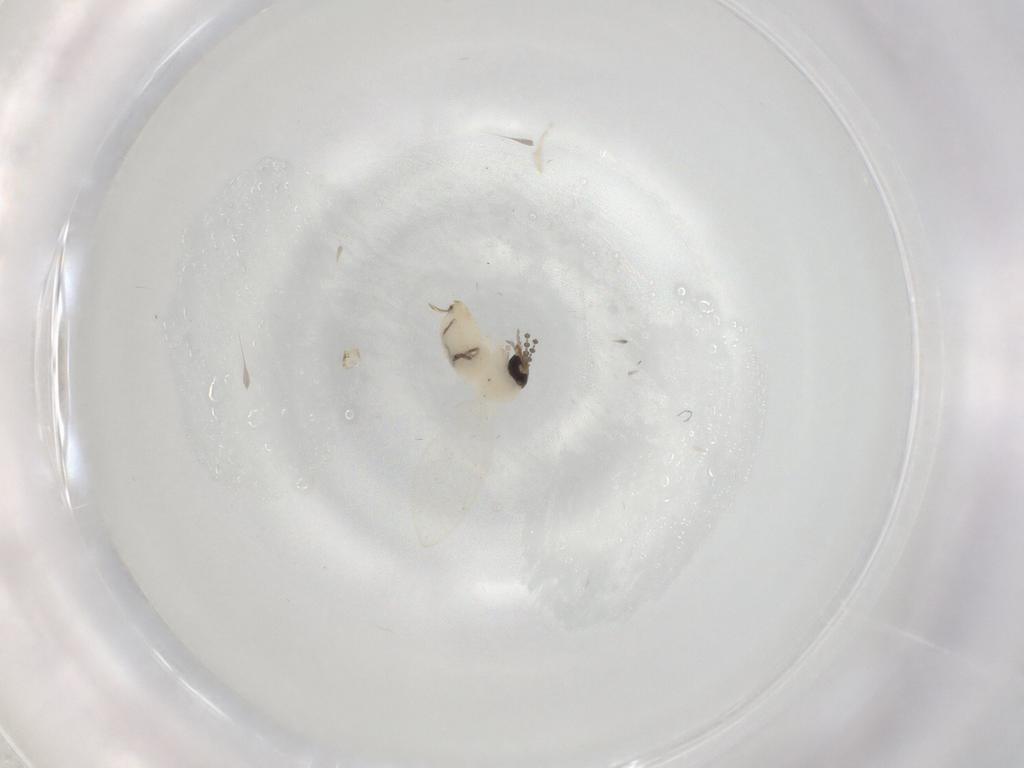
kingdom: Animalia
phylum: Arthropoda
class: Insecta
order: Diptera
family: Psychodidae
